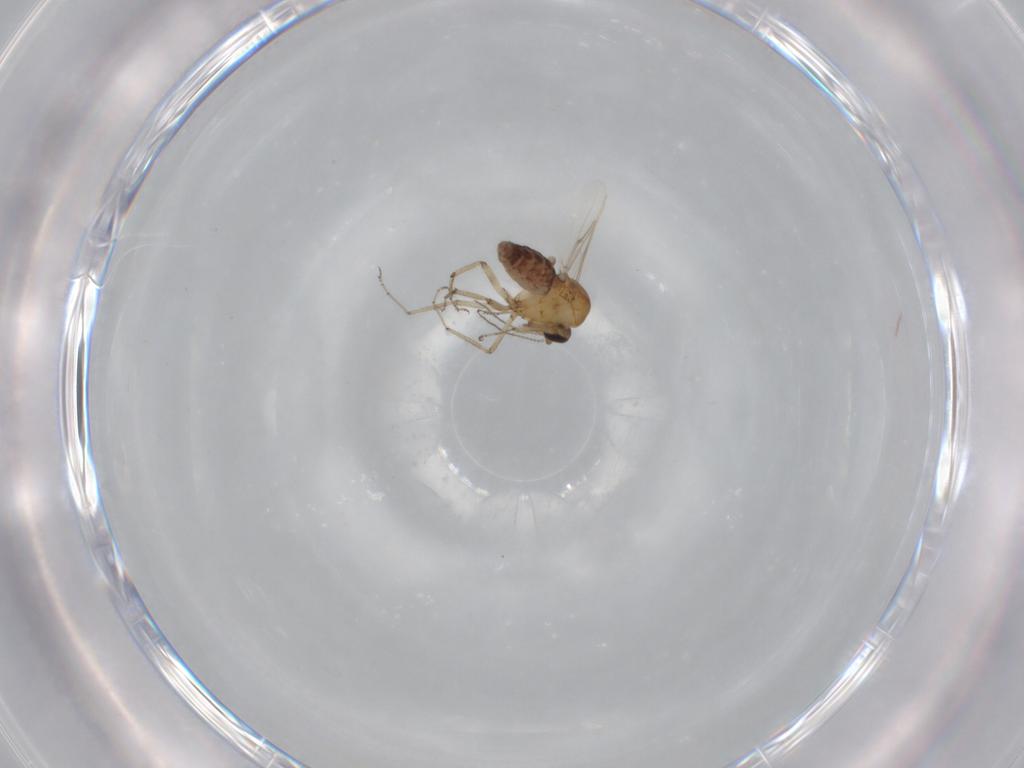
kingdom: Animalia
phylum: Arthropoda
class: Insecta
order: Diptera
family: Ceratopogonidae
